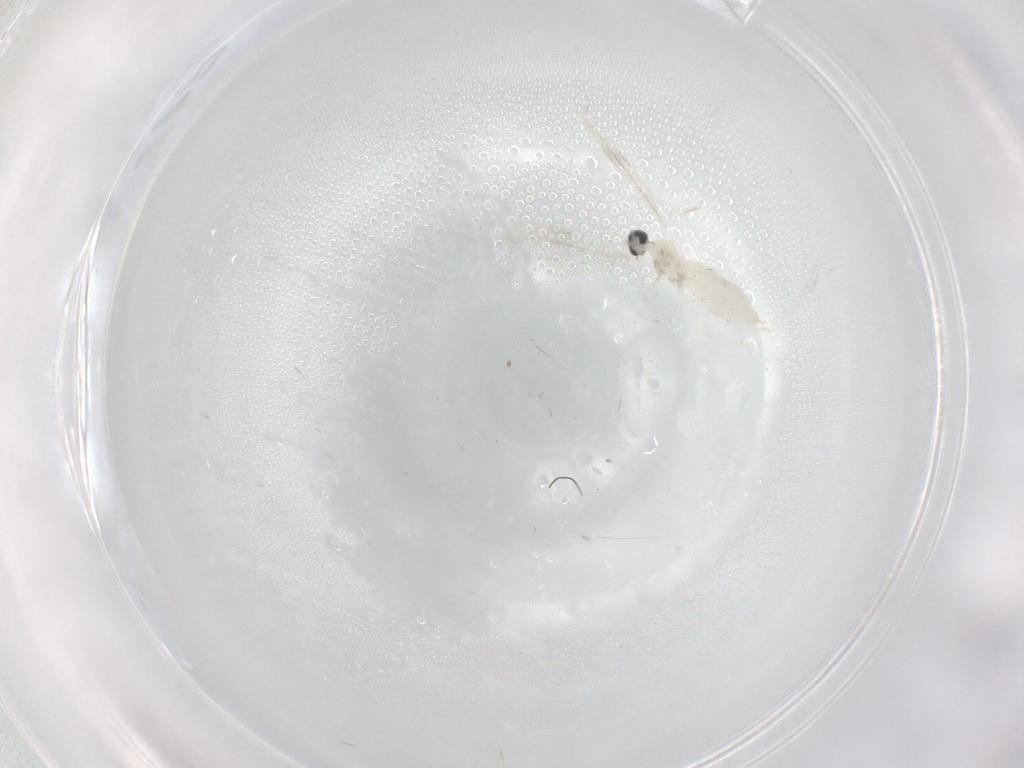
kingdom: Animalia
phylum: Arthropoda
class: Insecta
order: Diptera
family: Cecidomyiidae
